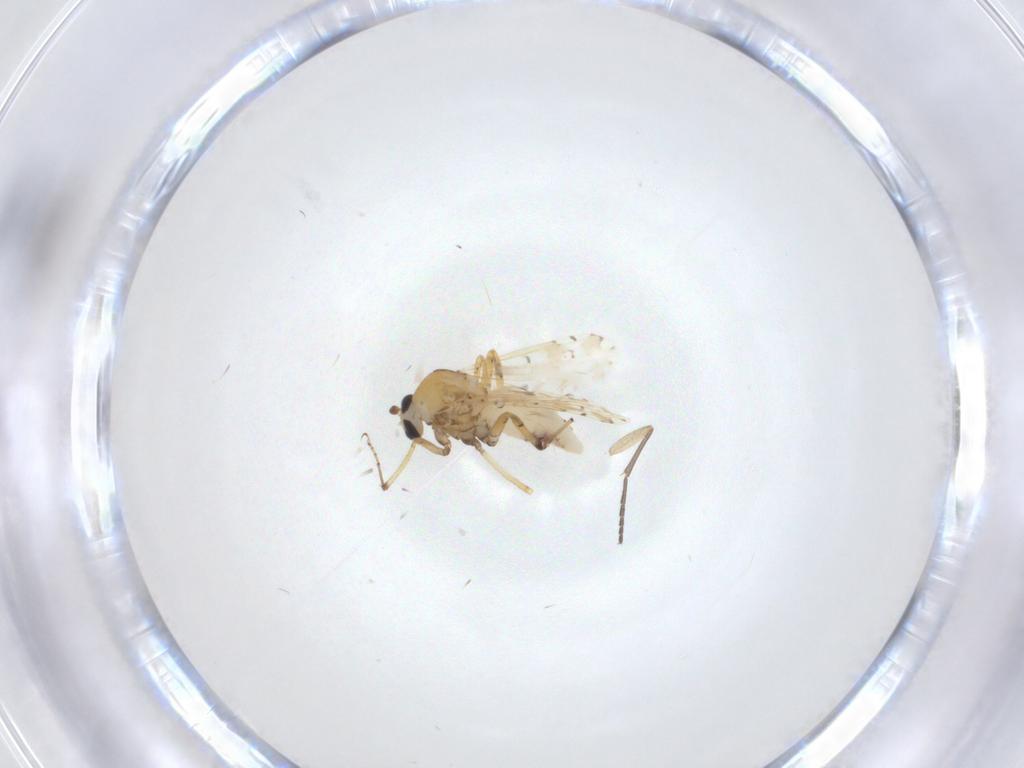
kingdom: Animalia
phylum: Arthropoda
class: Insecta
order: Diptera
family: Ceratopogonidae
